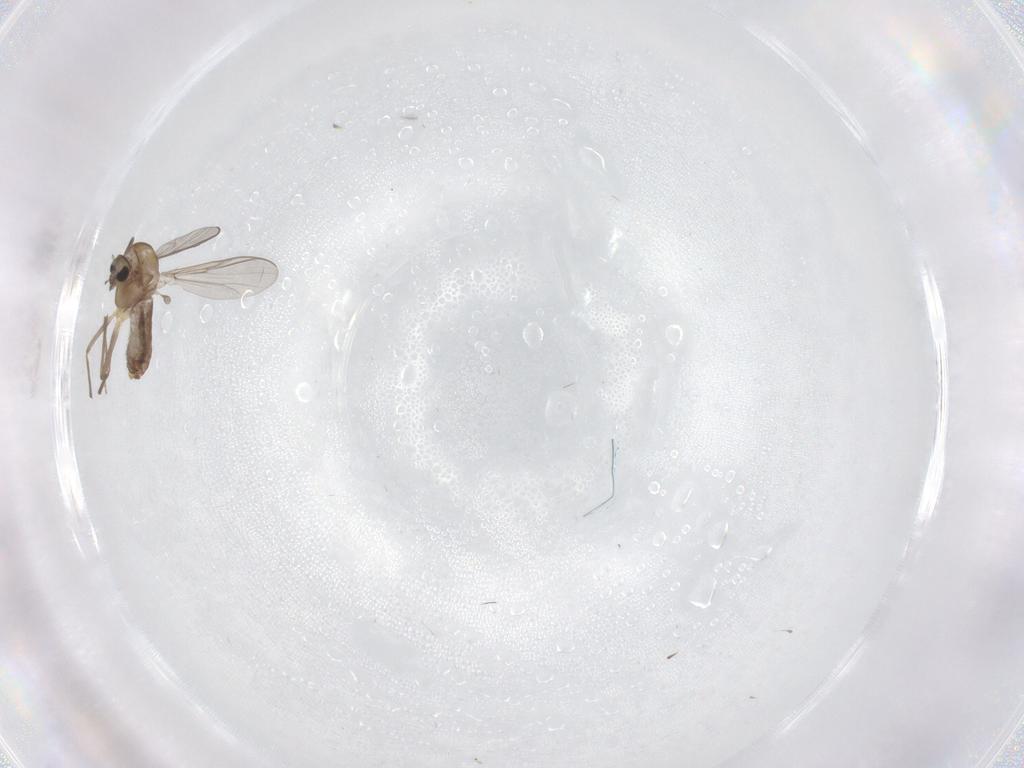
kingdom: Animalia
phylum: Arthropoda
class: Insecta
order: Diptera
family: Chironomidae
